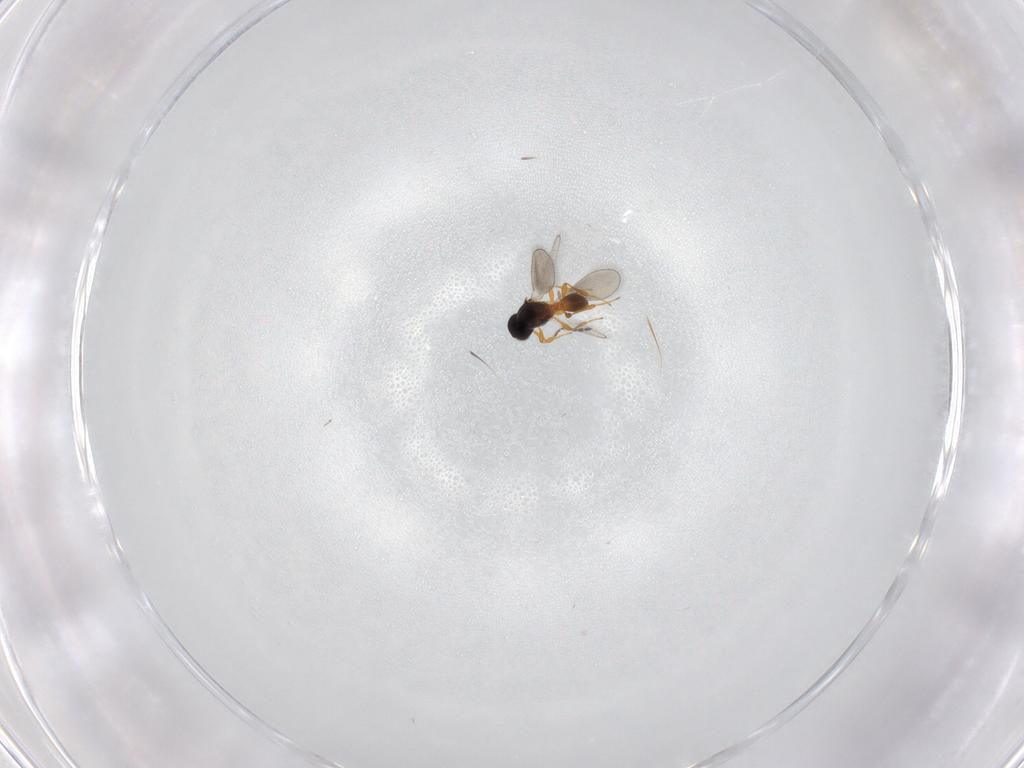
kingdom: Animalia
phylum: Arthropoda
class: Insecta
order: Hymenoptera
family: Platygastridae
